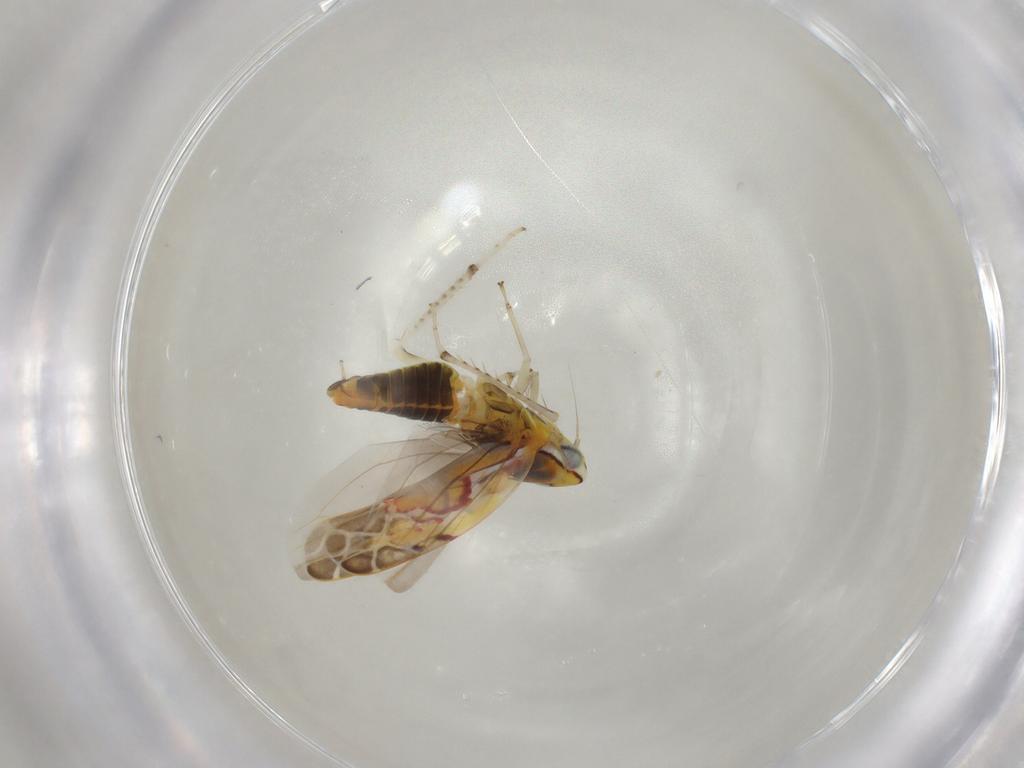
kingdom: Animalia
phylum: Arthropoda
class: Insecta
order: Hemiptera
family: Cicadellidae
